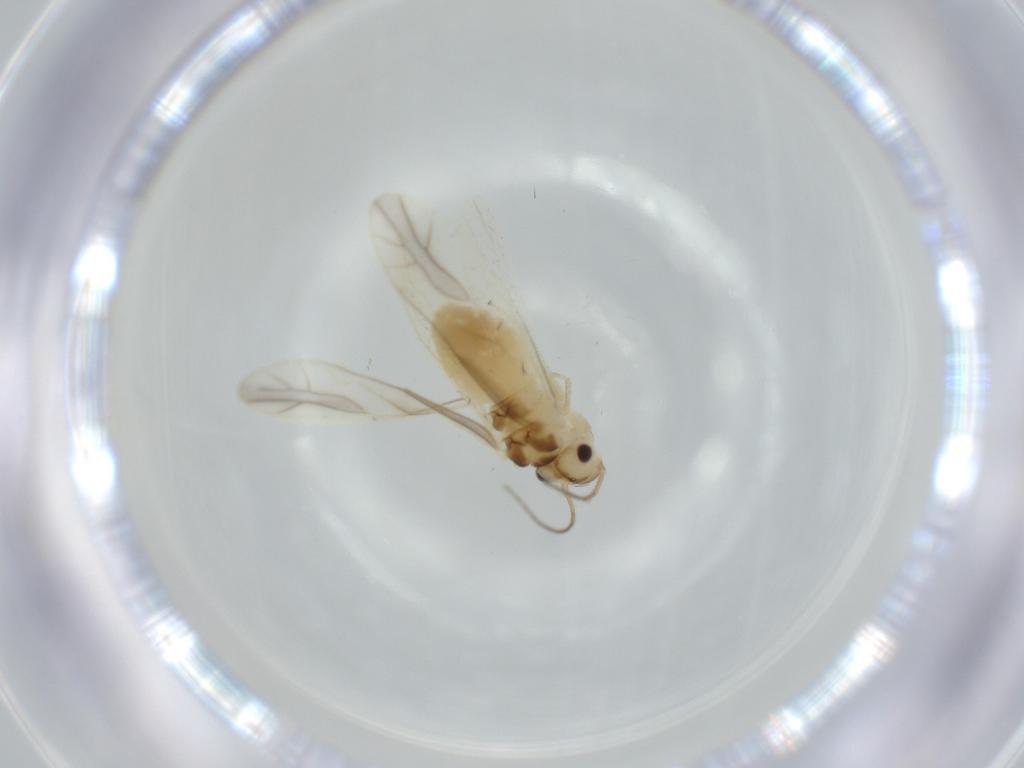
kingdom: Animalia
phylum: Arthropoda
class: Insecta
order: Psocodea
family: Caeciliusidae
